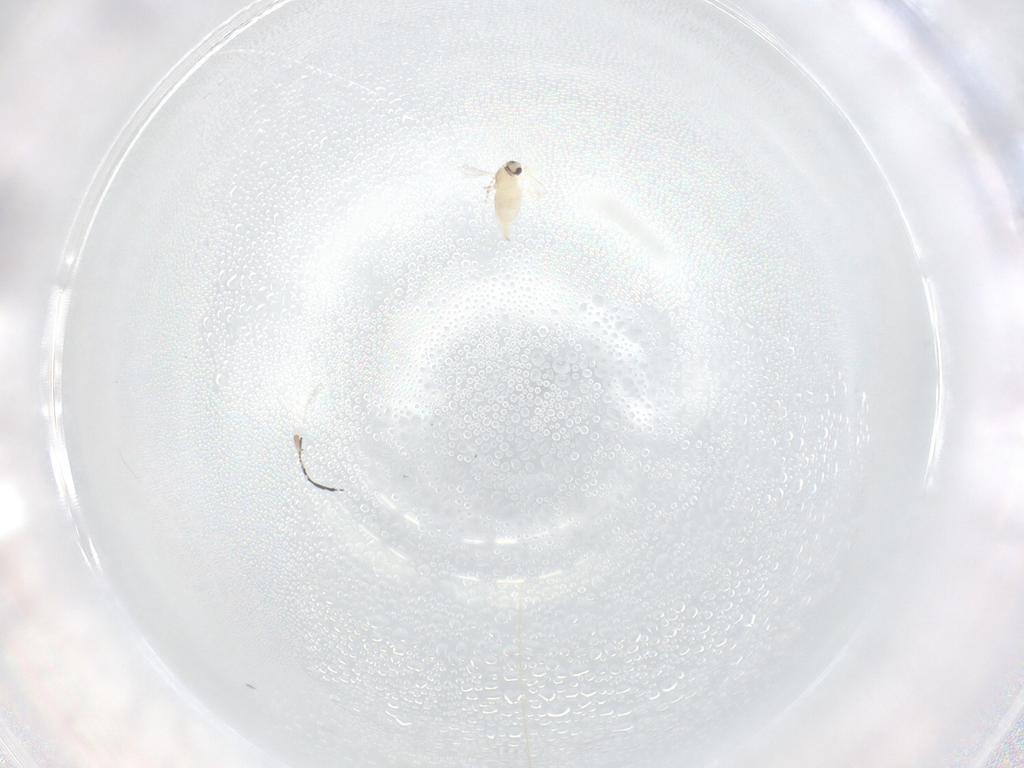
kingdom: Animalia
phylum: Arthropoda
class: Insecta
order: Diptera
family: Cecidomyiidae
